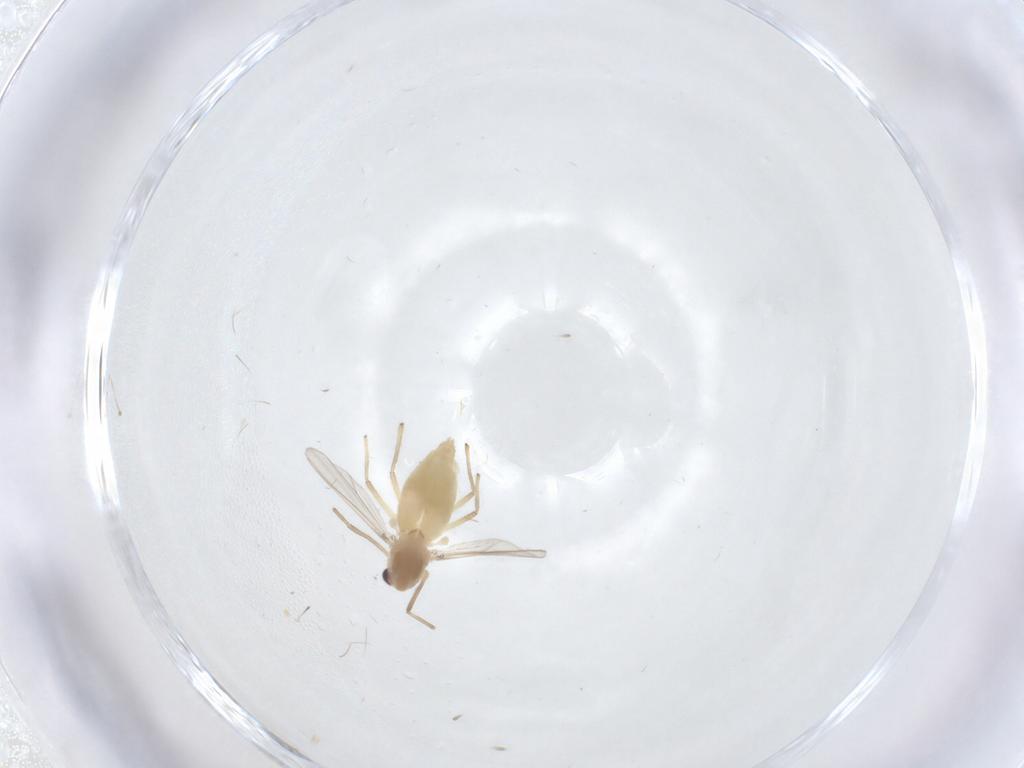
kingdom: Animalia
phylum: Arthropoda
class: Insecta
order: Diptera
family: Chironomidae
